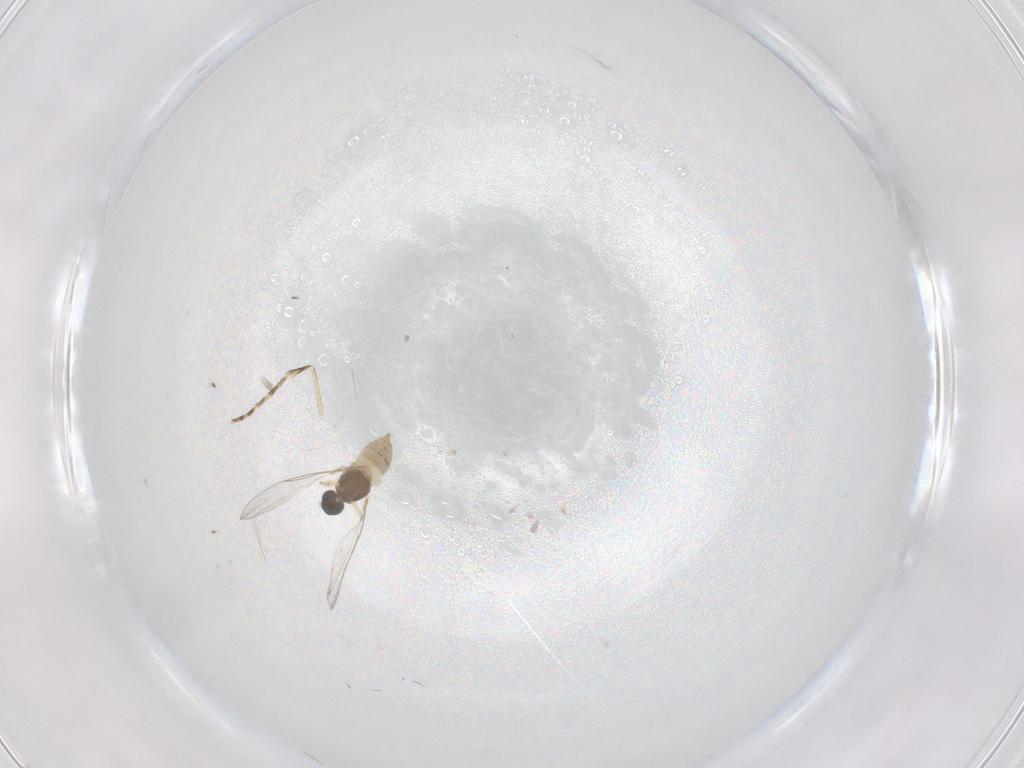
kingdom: Animalia
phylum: Arthropoda
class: Insecta
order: Diptera
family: Cecidomyiidae
